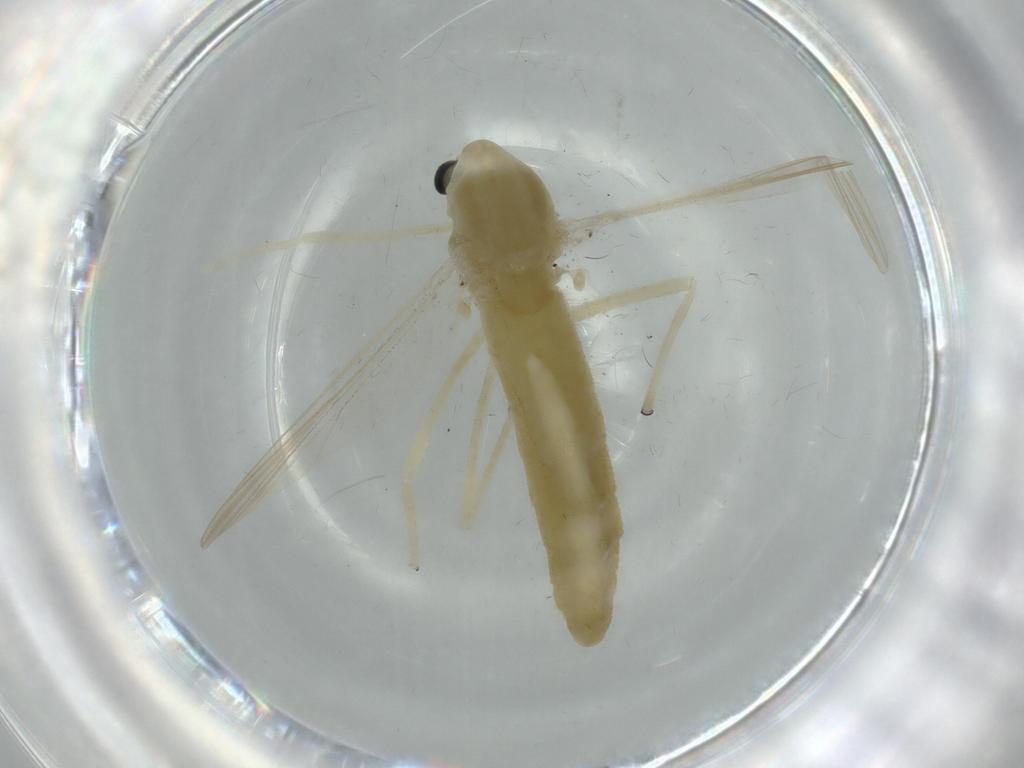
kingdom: Animalia
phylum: Arthropoda
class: Insecta
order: Diptera
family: Chironomidae
